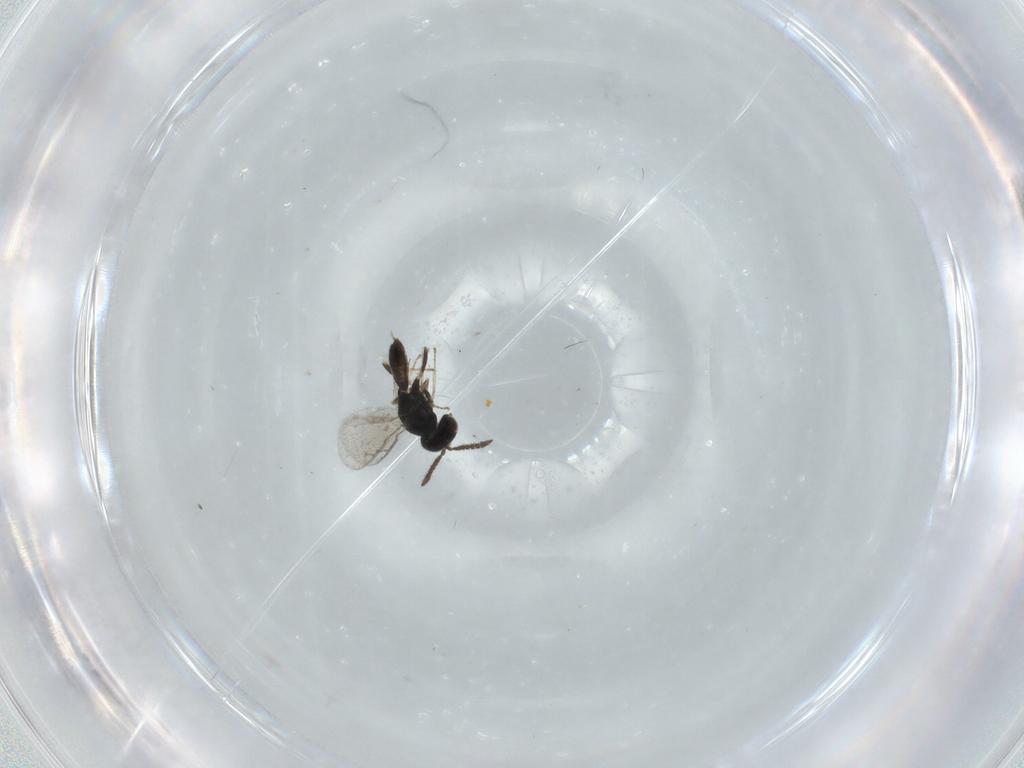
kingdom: Animalia
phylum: Arthropoda
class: Insecta
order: Hymenoptera
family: Pteromalidae
